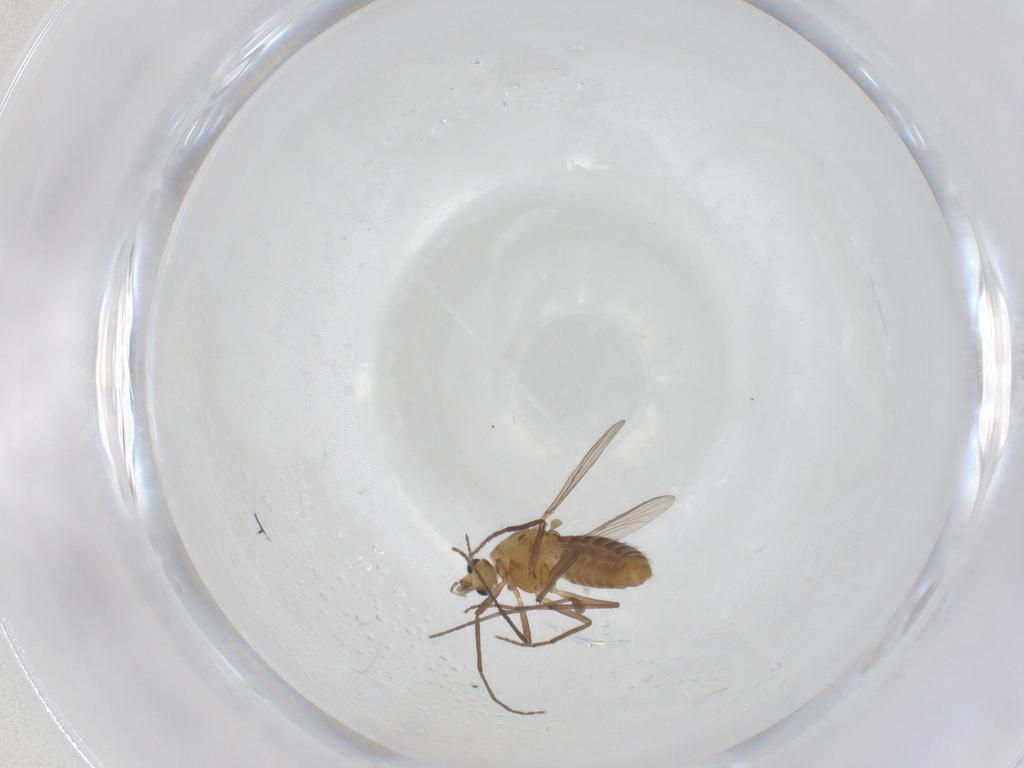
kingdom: Animalia
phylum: Arthropoda
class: Insecta
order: Diptera
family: Chironomidae
